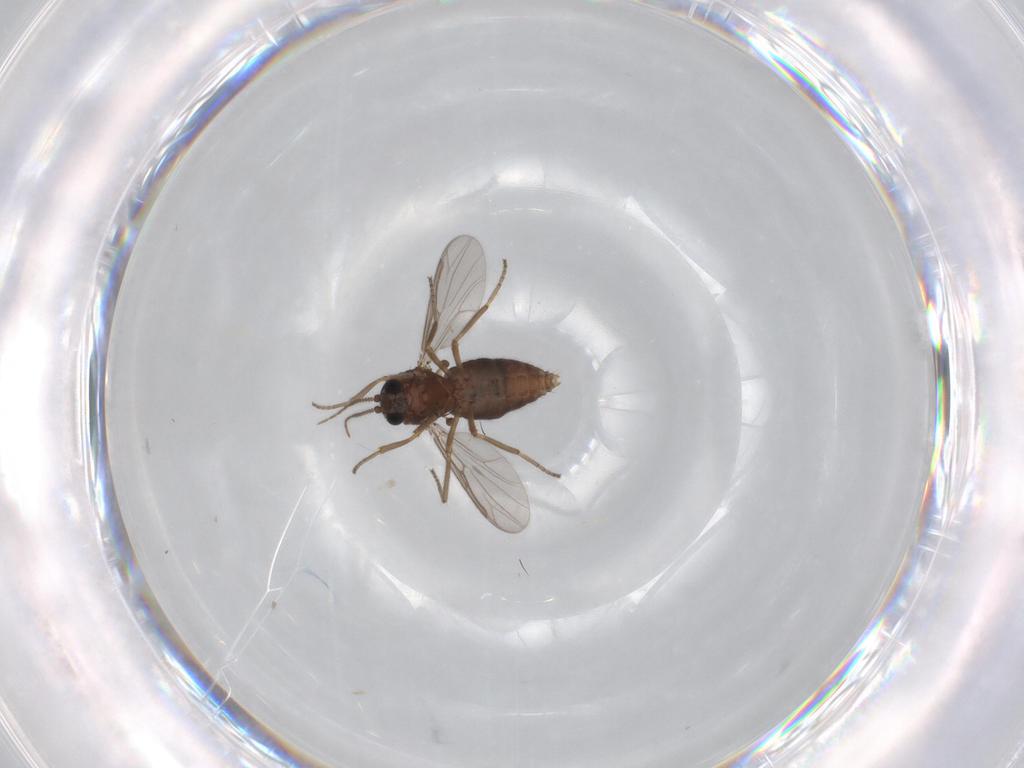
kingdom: Animalia
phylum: Arthropoda
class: Insecta
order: Diptera
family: Ceratopogonidae
